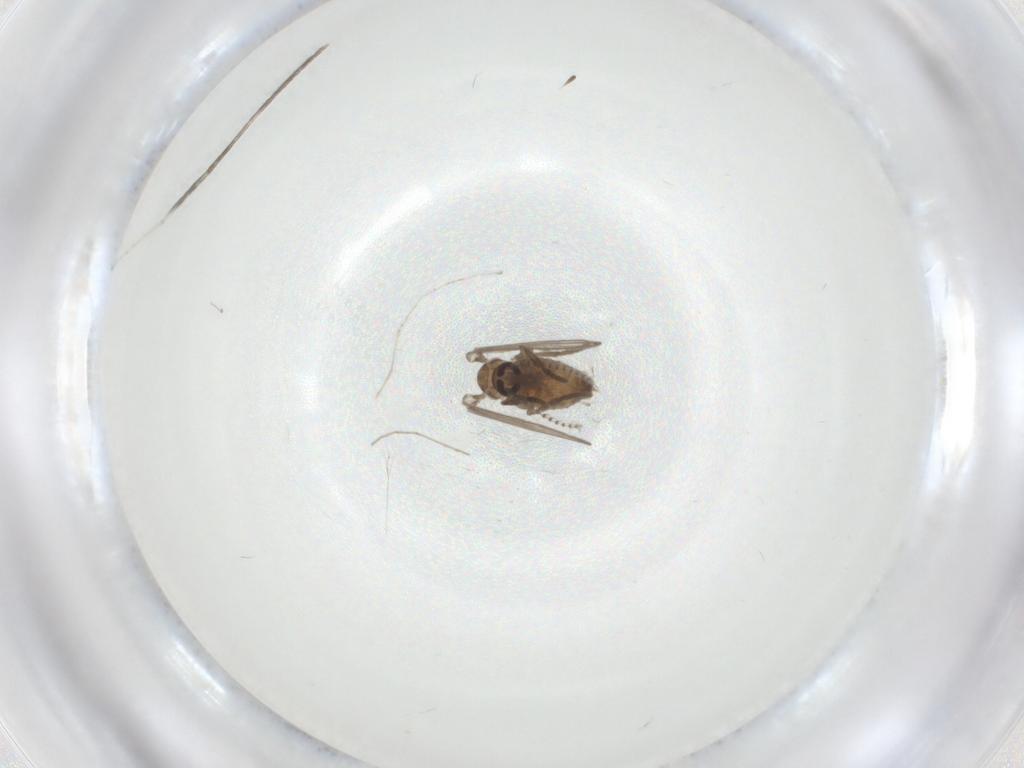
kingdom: Animalia
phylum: Arthropoda
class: Insecta
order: Diptera
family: Psychodidae
